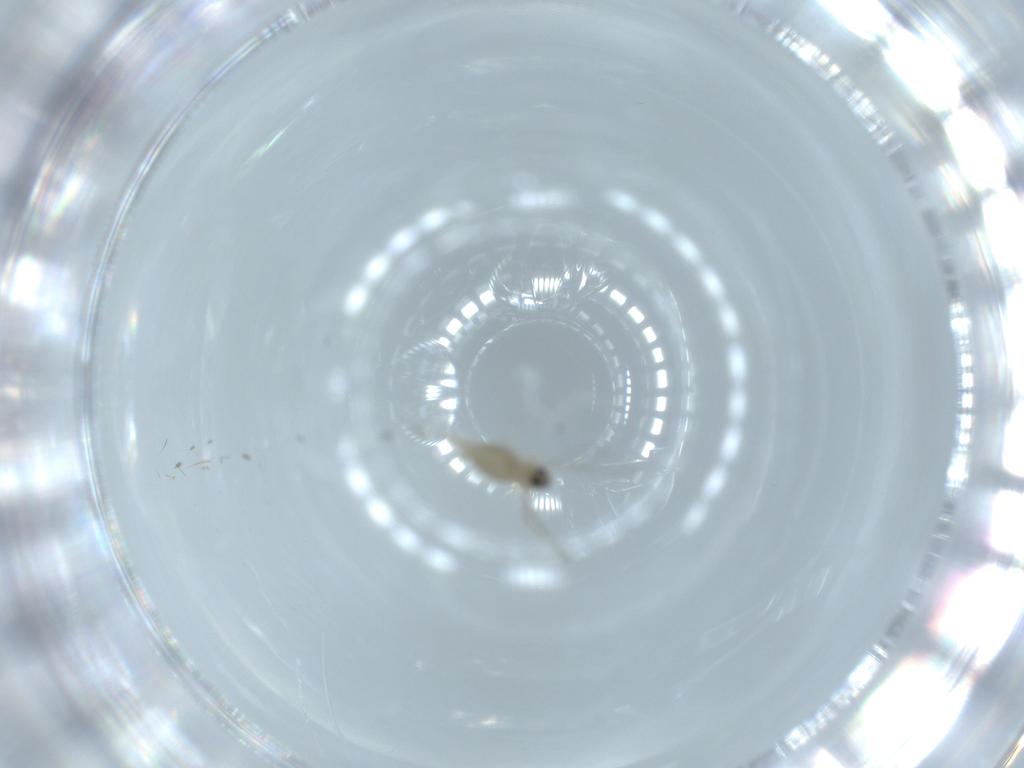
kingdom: Animalia
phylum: Arthropoda
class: Insecta
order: Diptera
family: Cecidomyiidae
